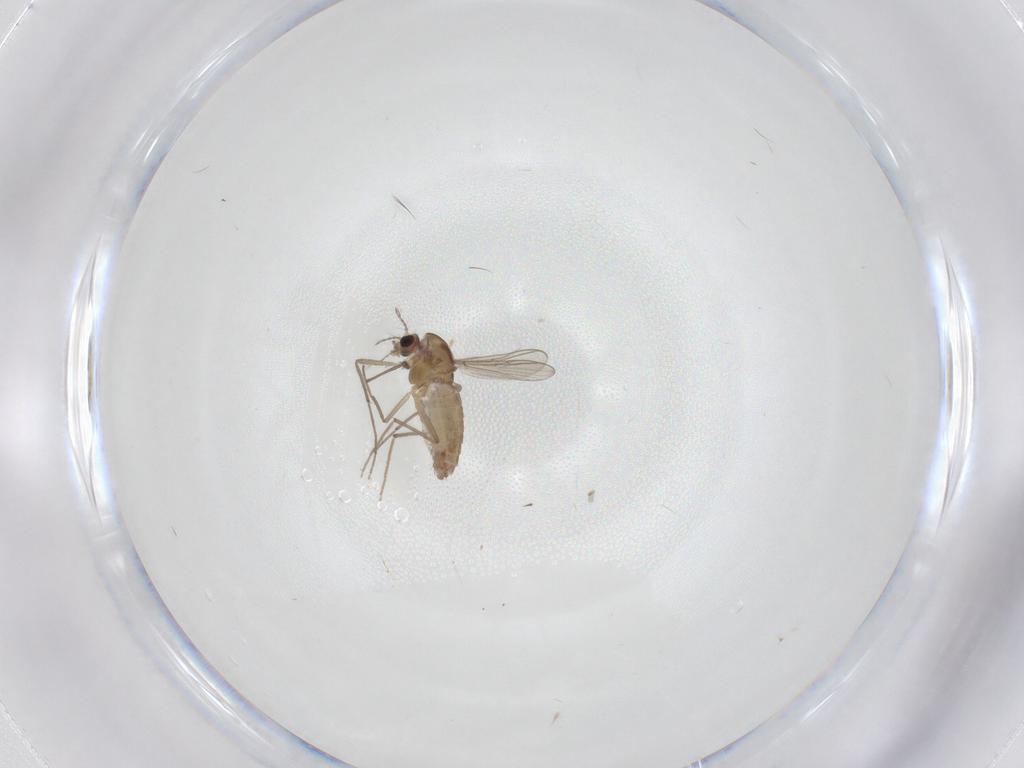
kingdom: Animalia
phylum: Arthropoda
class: Insecta
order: Diptera
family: Chironomidae
